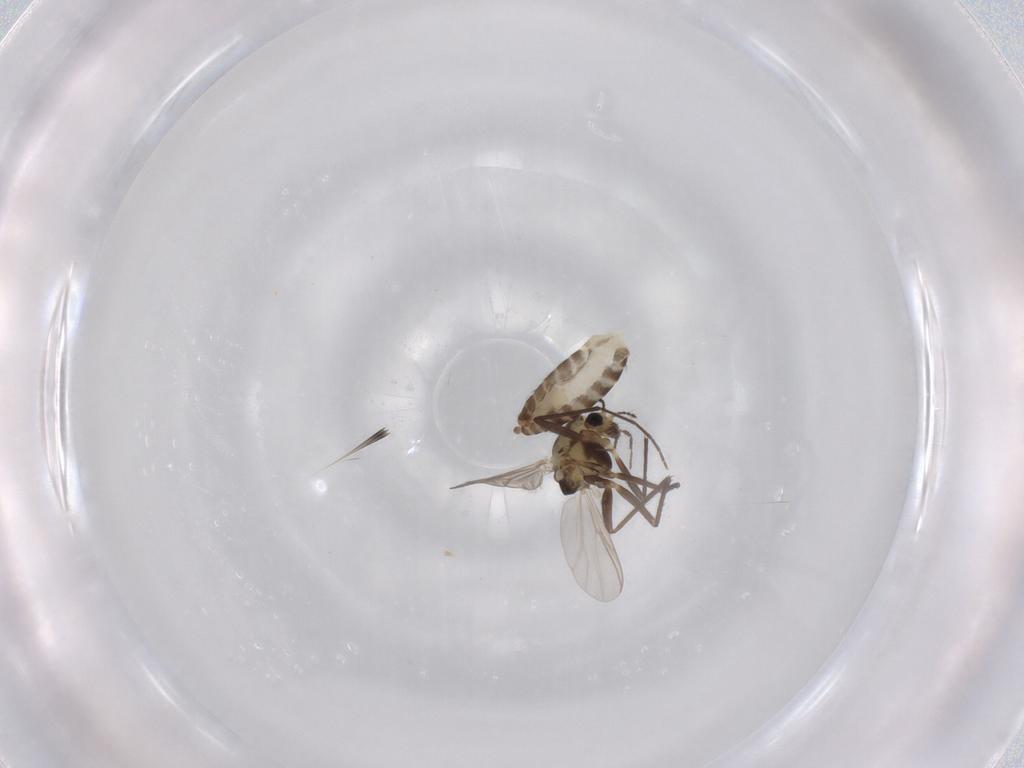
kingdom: Animalia
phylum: Arthropoda
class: Insecta
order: Diptera
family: Chironomidae
